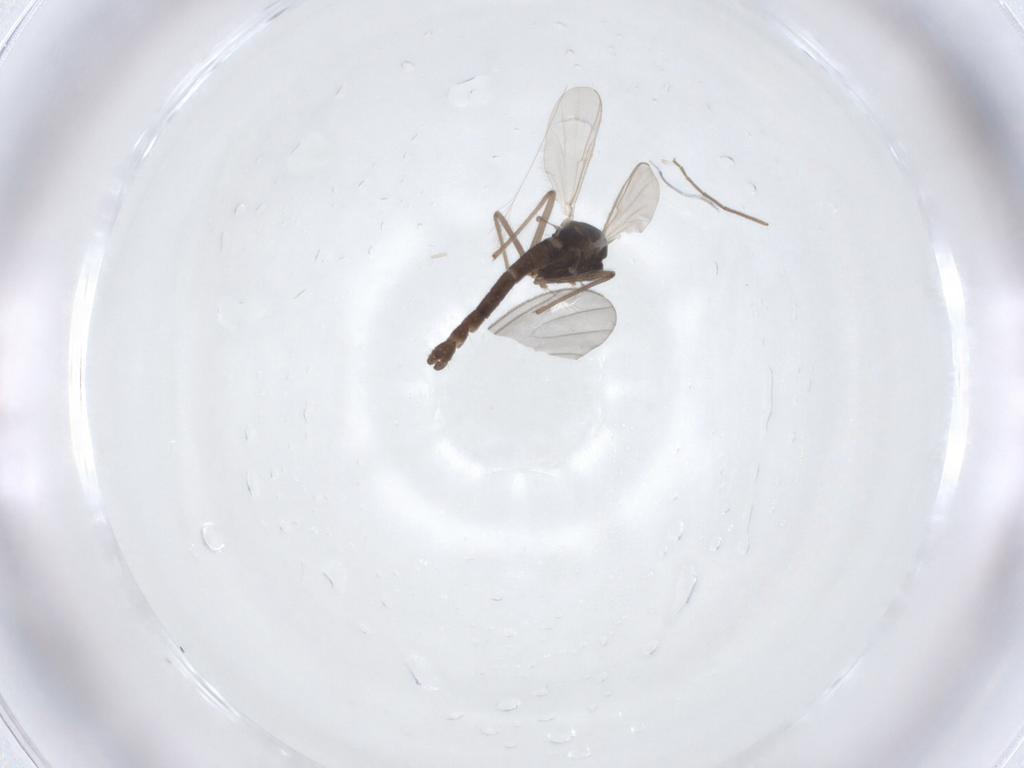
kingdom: Animalia
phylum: Arthropoda
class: Insecta
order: Diptera
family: Chironomidae
